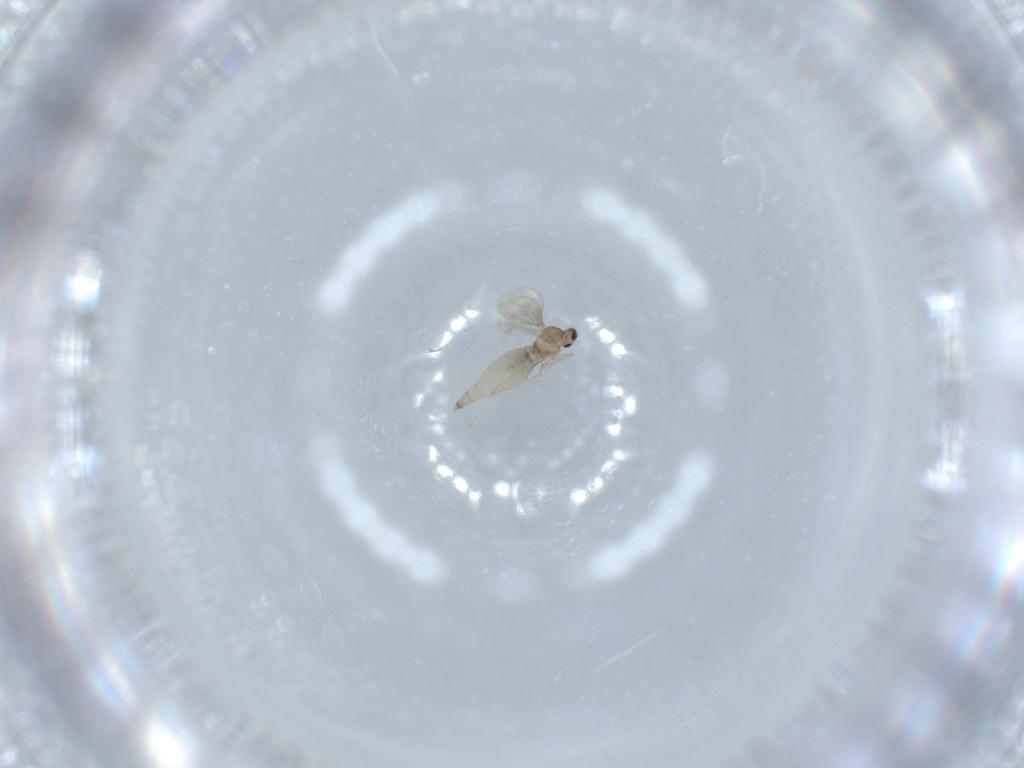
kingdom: Animalia
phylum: Arthropoda
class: Insecta
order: Diptera
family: Cecidomyiidae
